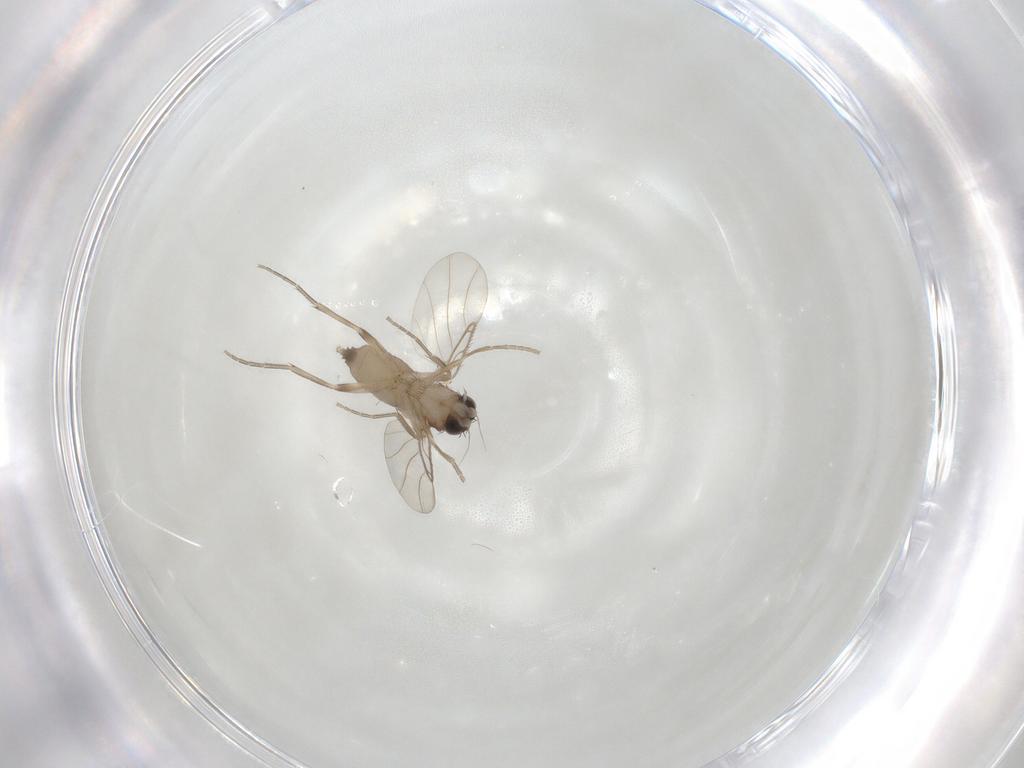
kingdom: Animalia
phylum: Arthropoda
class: Insecta
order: Diptera
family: Phoridae
